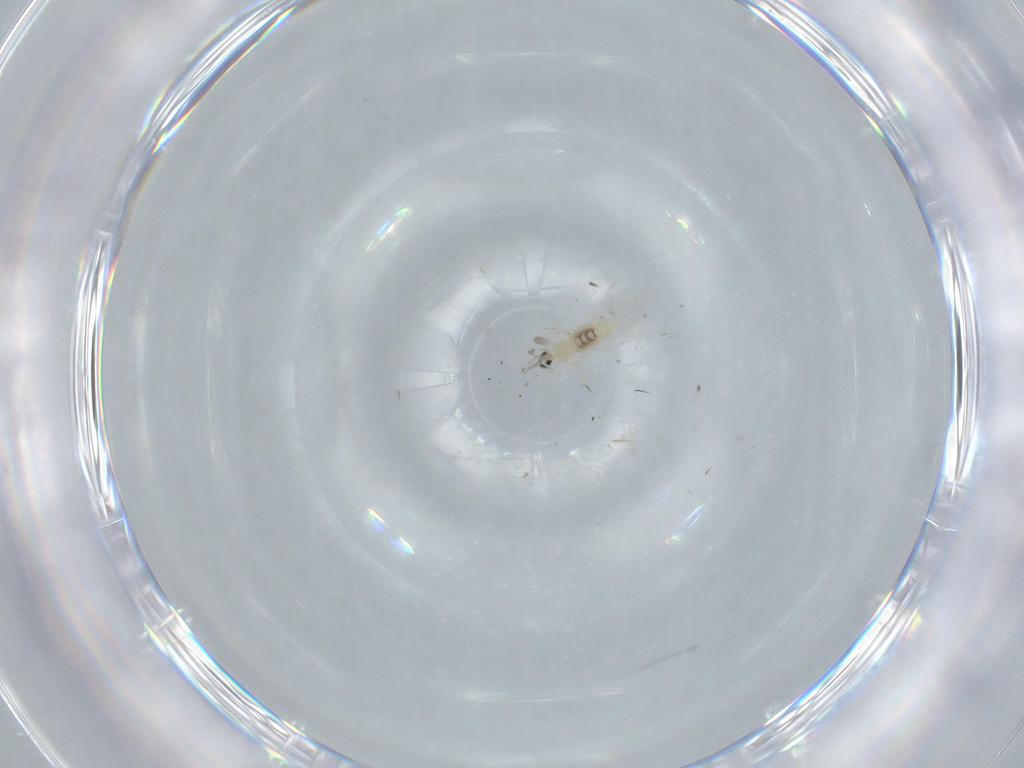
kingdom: Animalia
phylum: Arthropoda
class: Insecta
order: Diptera
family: Cecidomyiidae
